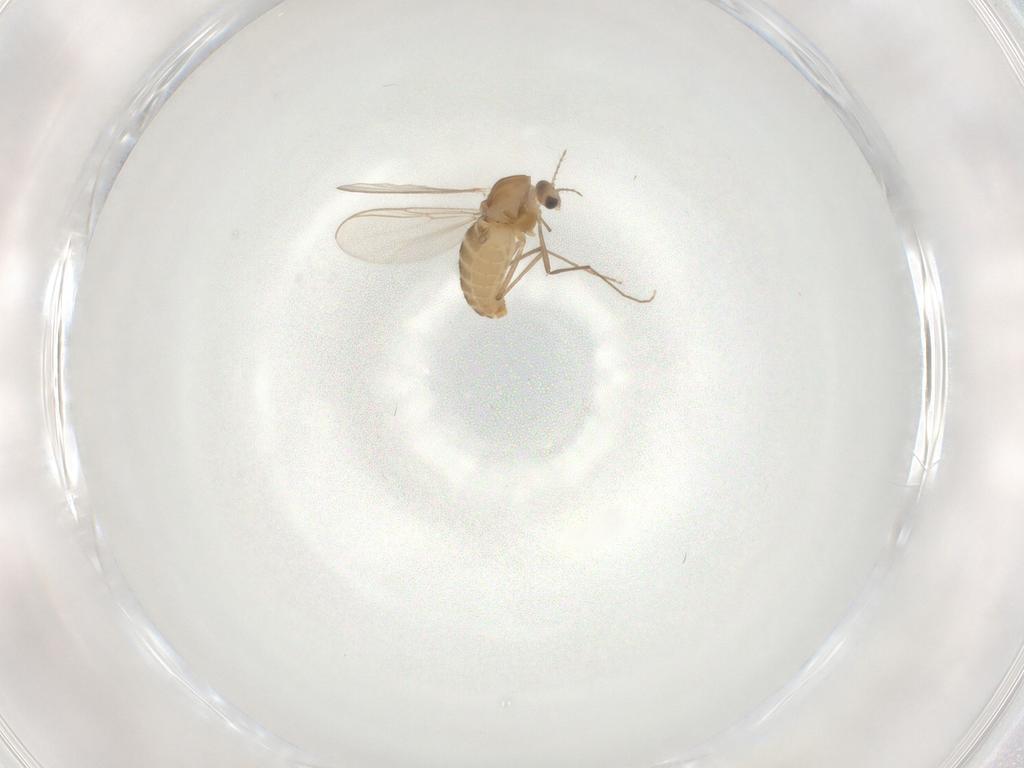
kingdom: Animalia
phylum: Arthropoda
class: Insecta
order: Diptera
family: Chironomidae
